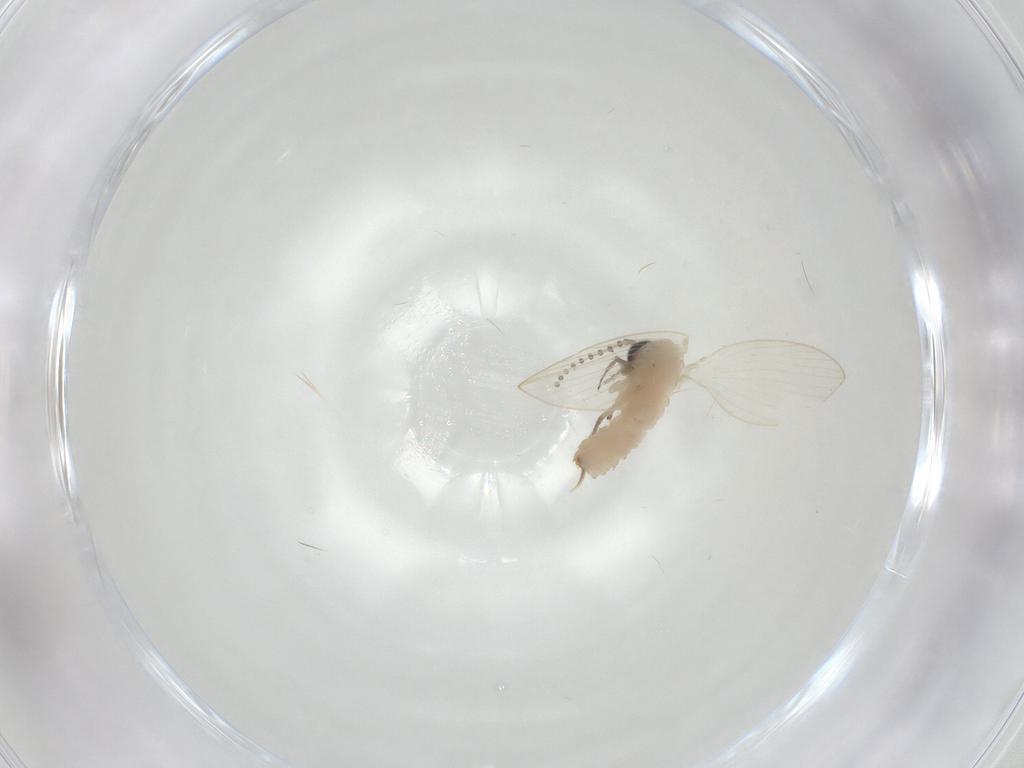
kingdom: Animalia
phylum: Arthropoda
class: Insecta
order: Diptera
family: Psychodidae
